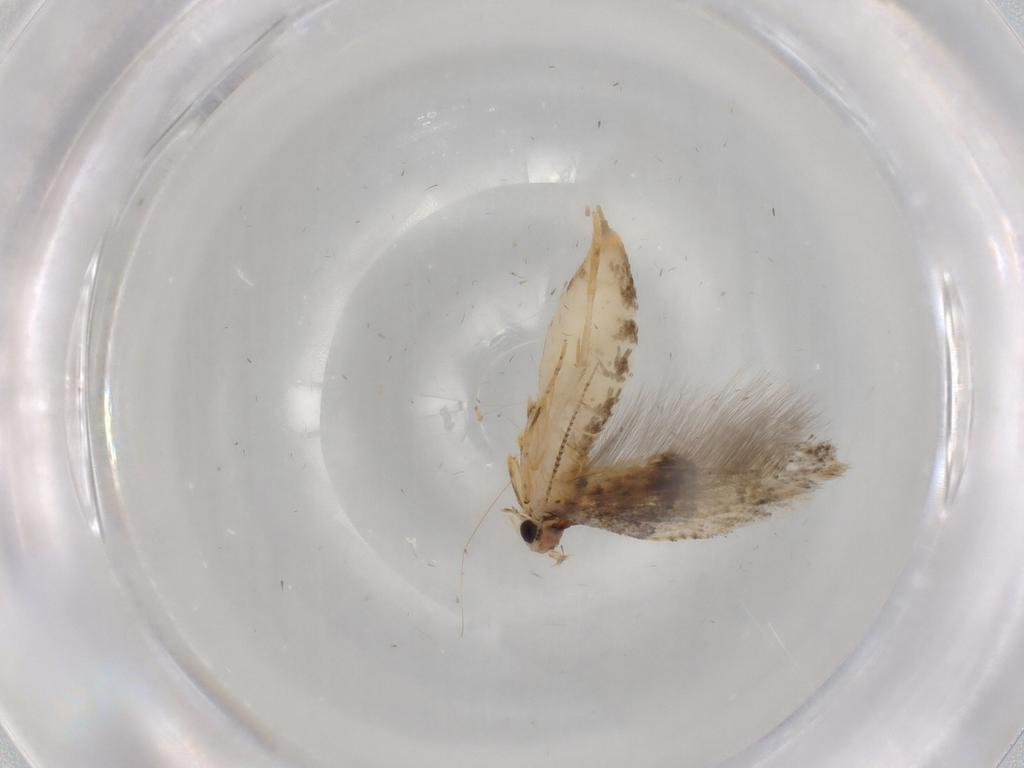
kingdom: Animalia
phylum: Arthropoda
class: Insecta
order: Lepidoptera
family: Tineidae
